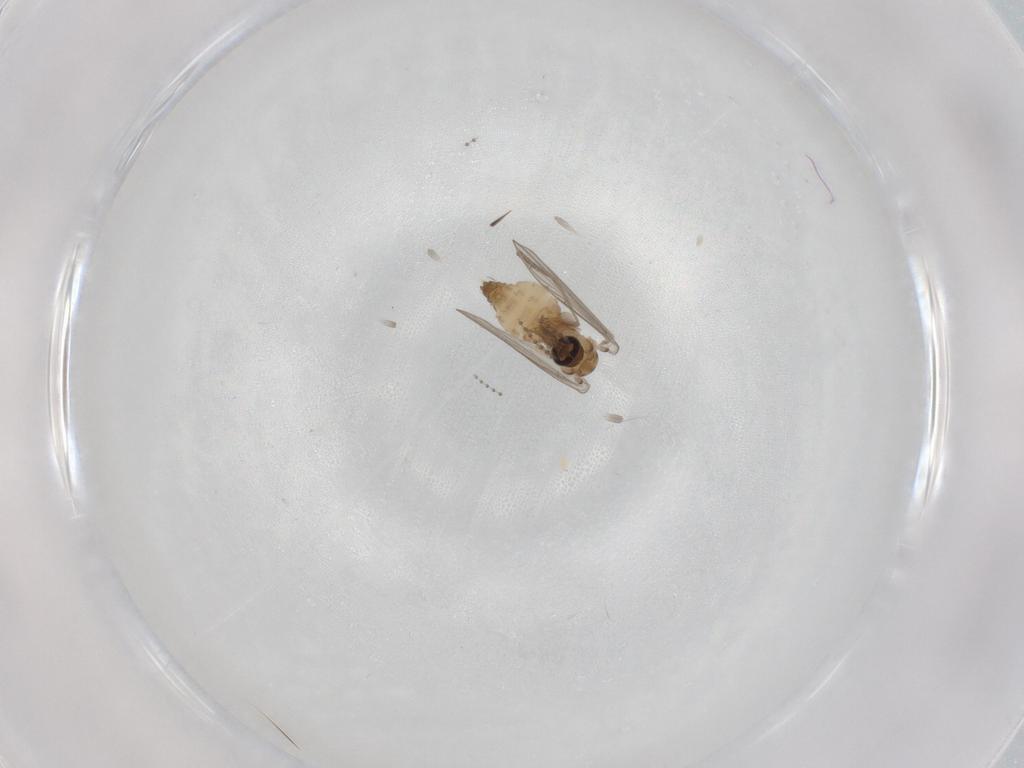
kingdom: Animalia
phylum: Arthropoda
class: Insecta
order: Diptera
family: Psychodidae
